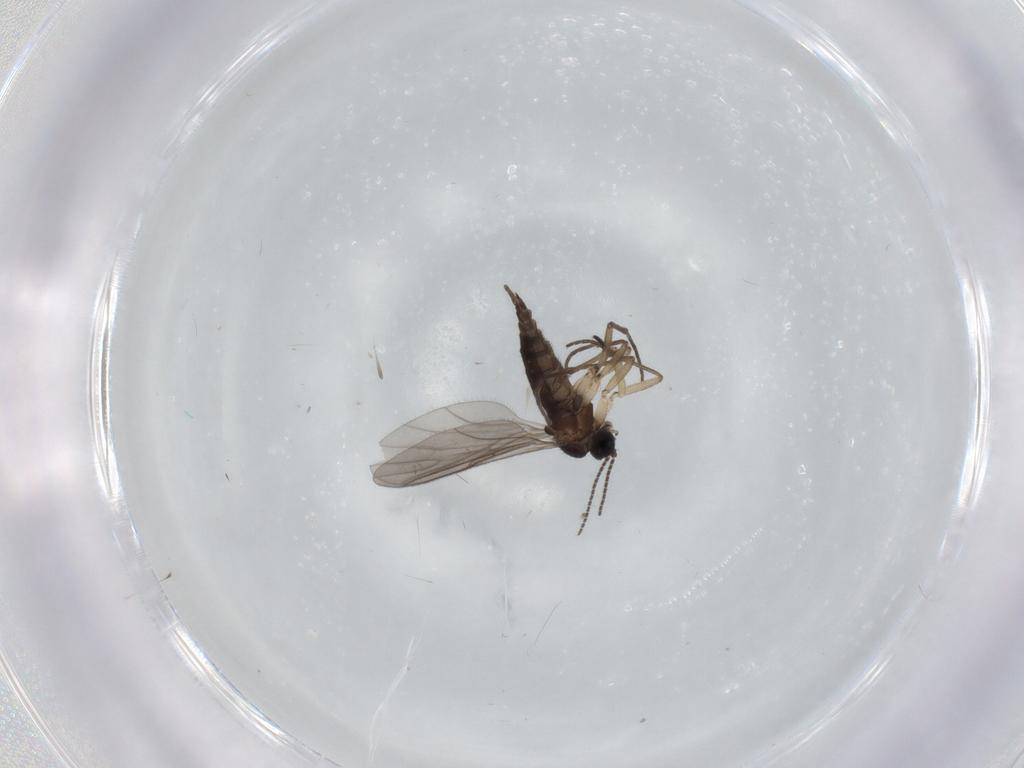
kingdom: Animalia
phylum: Arthropoda
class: Insecta
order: Diptera
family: Sciaridae
